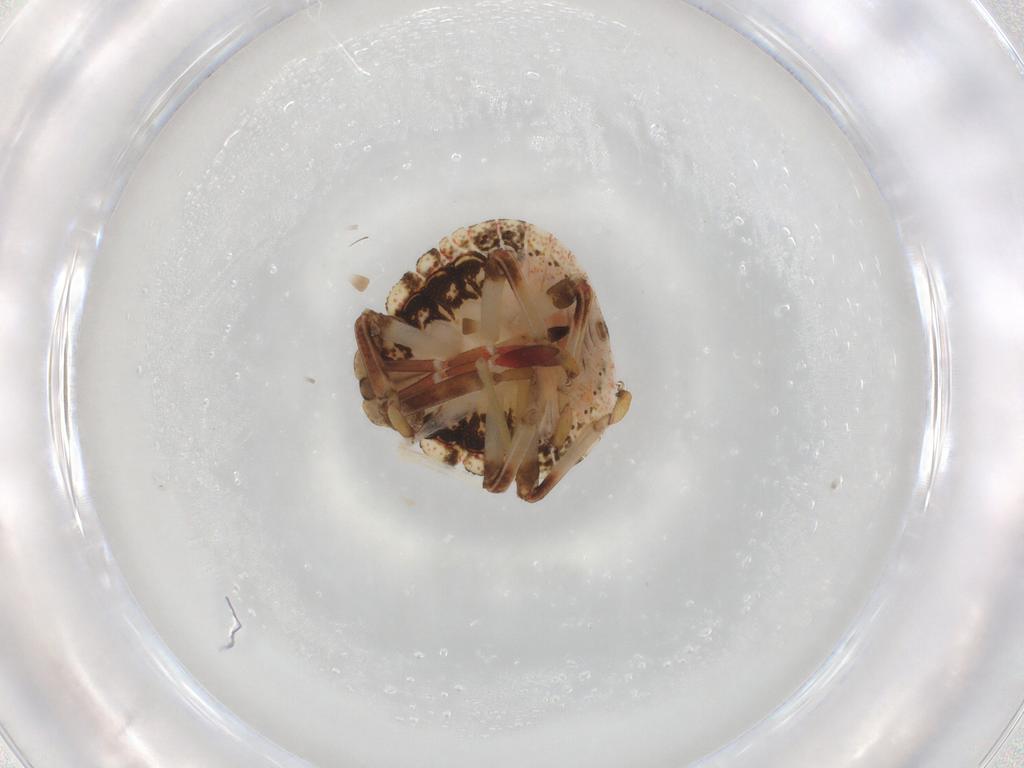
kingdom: Animalia
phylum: Arthropoda
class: Insecta
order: Hemiptera
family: Pentatomidae
